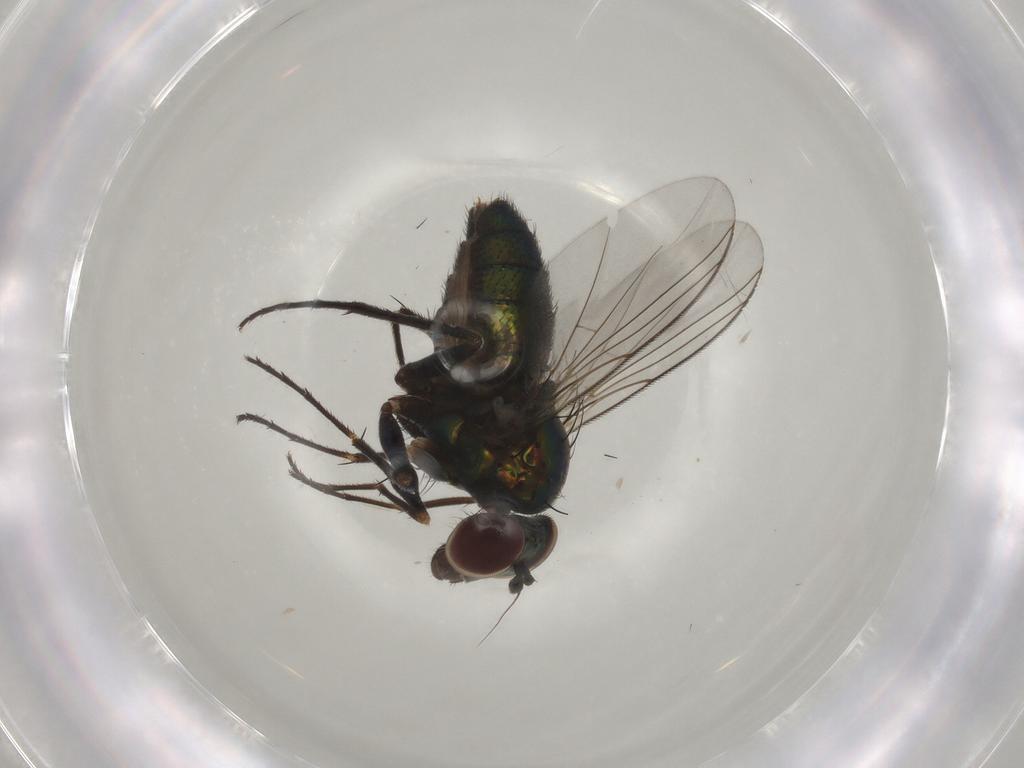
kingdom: Animalia
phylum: Arthropoda
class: Insecta
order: Diptera
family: Dolichopodidae
